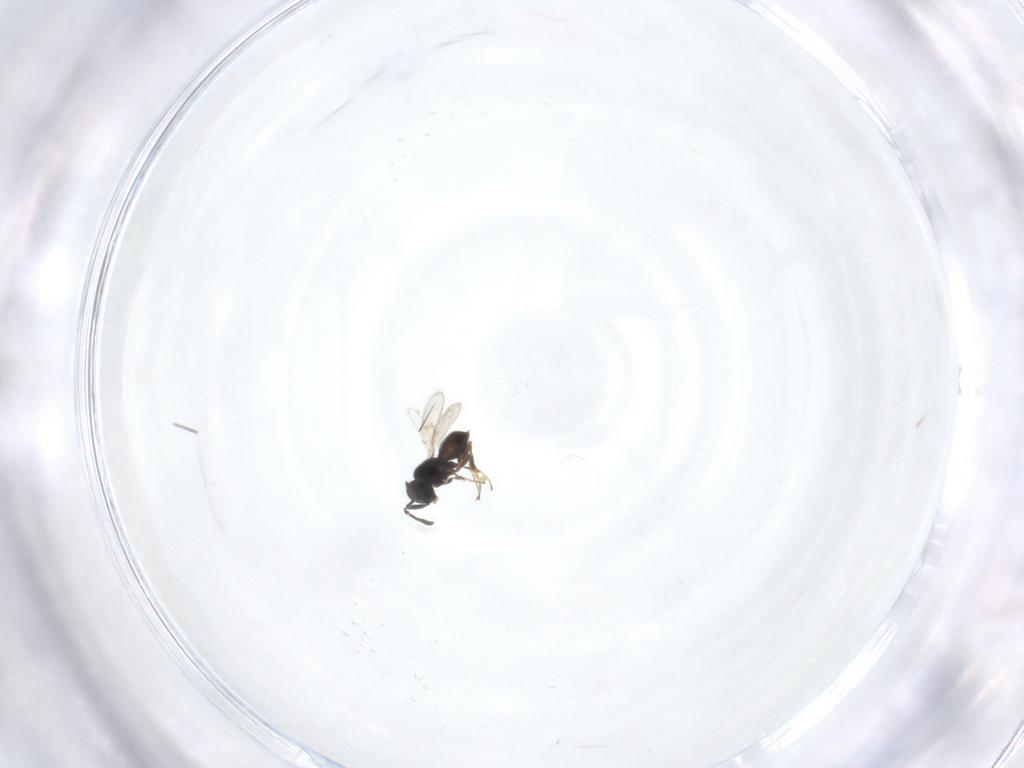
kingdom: Animalia
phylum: Arthropoda
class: Insecta
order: Hymenoptera
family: Scelionidae
